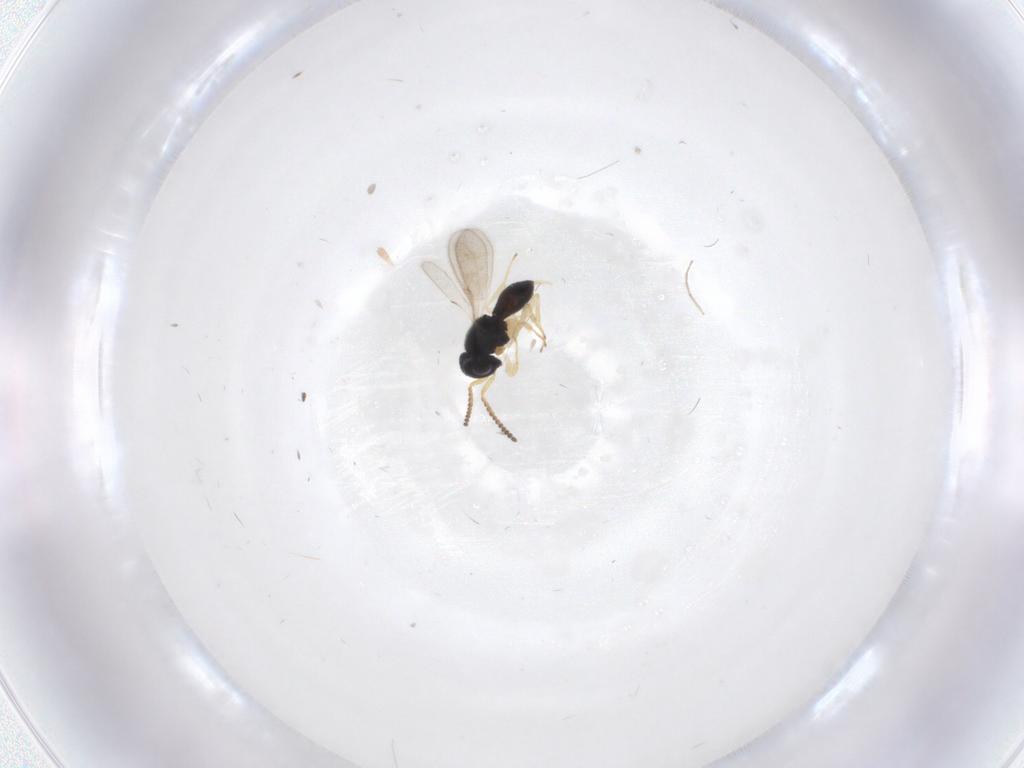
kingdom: Animalia
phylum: Arthropoda
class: Insecta
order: Hymenoptera
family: Scelionidae
